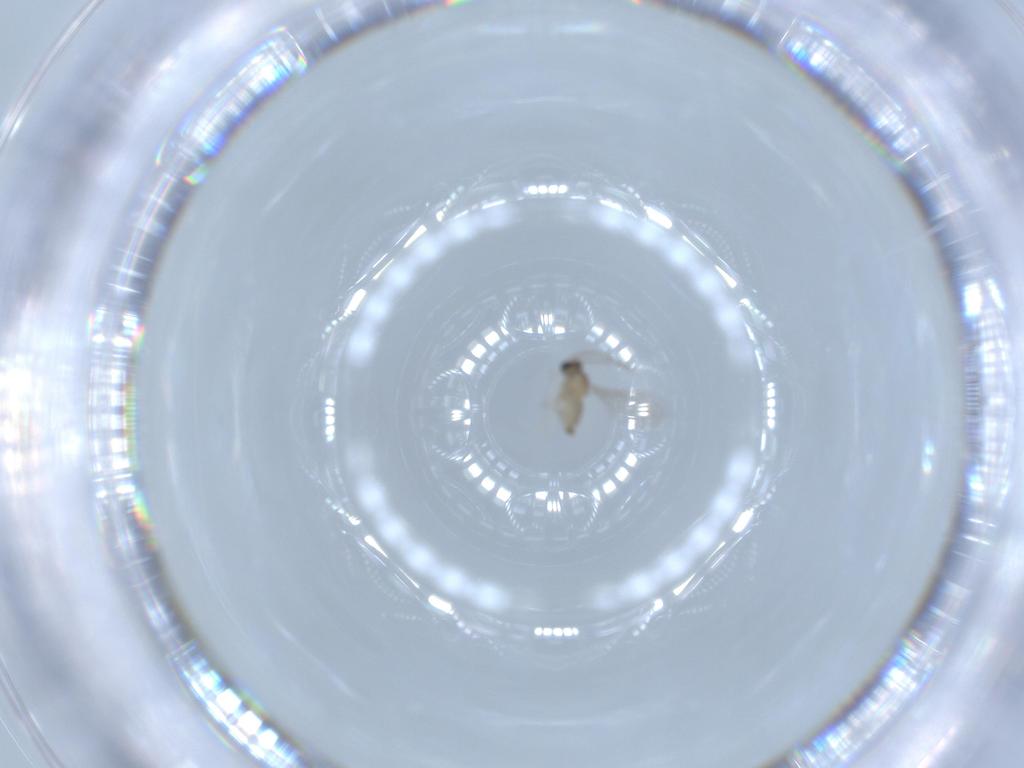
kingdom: Animalia
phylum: Arthropoda
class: Insecta
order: Diptera
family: Cecidomyiidae
